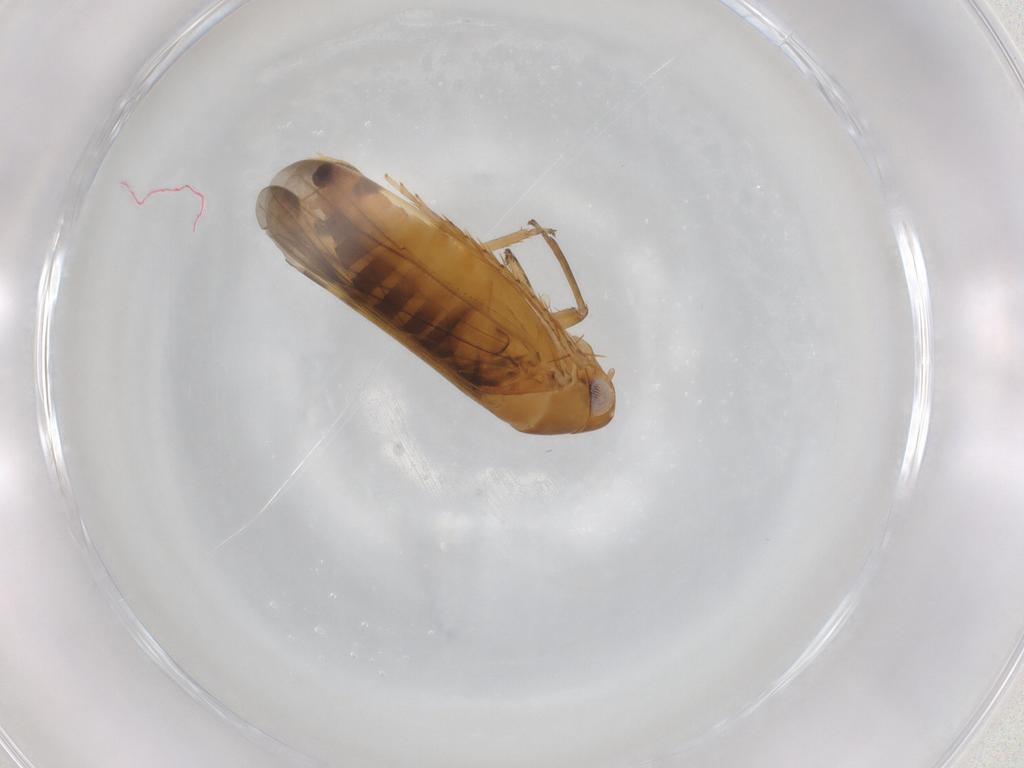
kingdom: Animalia
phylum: Arthropoda
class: Insecta
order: Hemiptera
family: Cicadellidae
